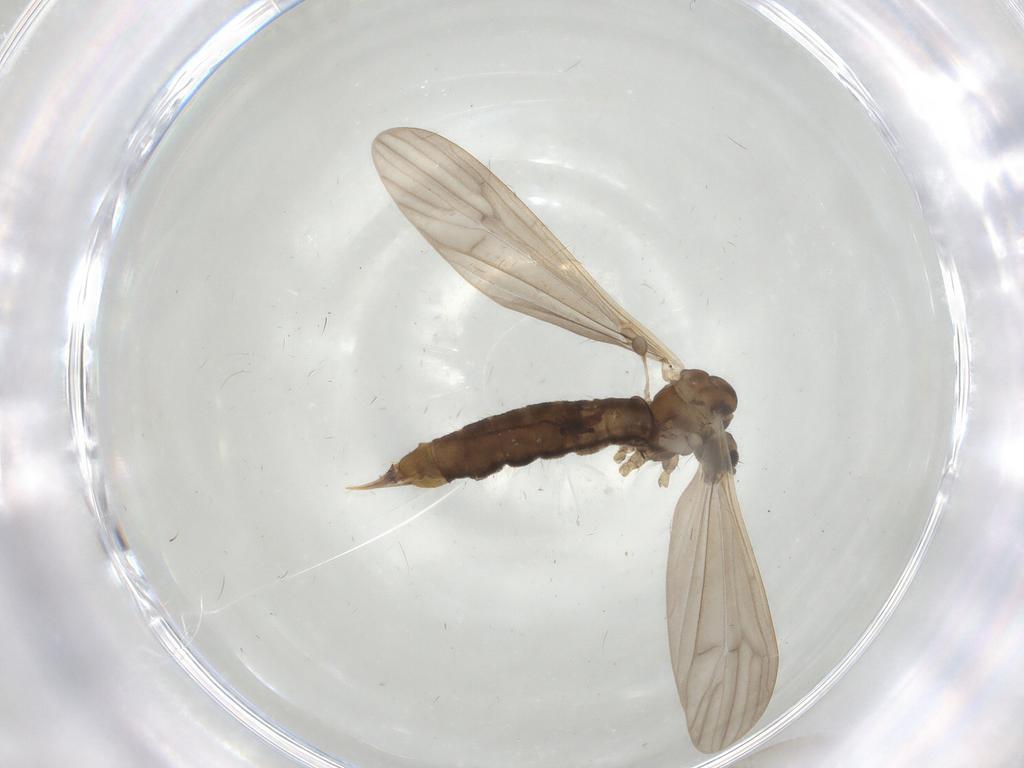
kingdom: Animalia
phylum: Arthropoda
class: Insecta
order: Diptera
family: Limoniidae
